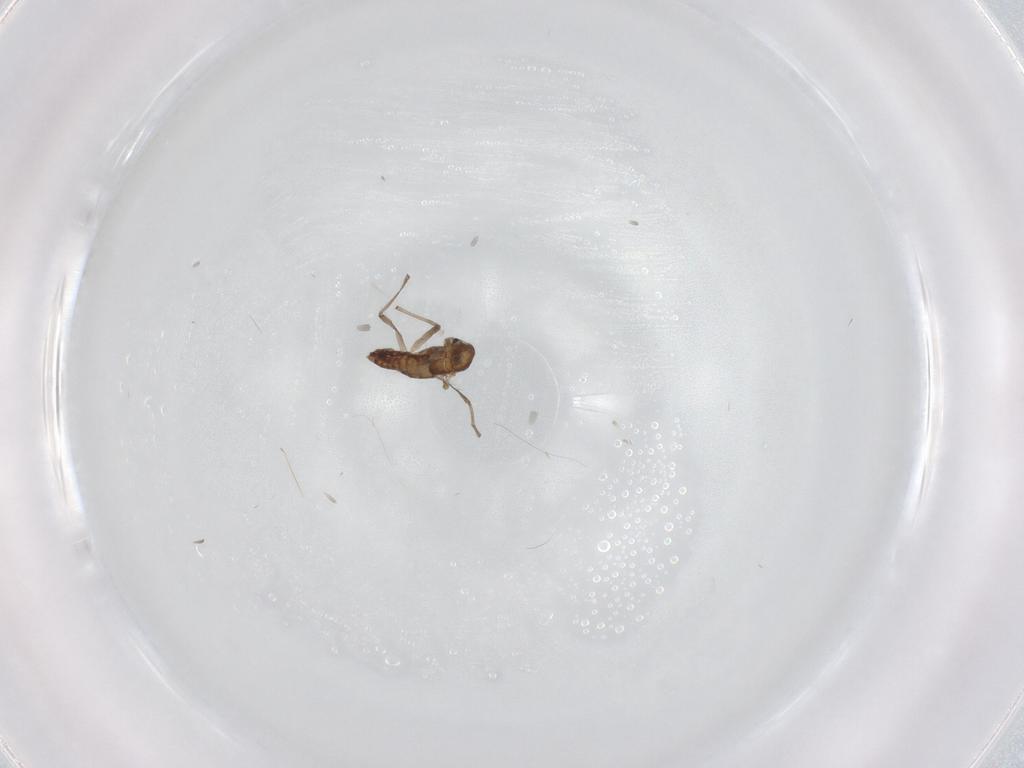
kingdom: Animalia
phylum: Arthropoda
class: Insecta
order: Diptera
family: Chironomidae
